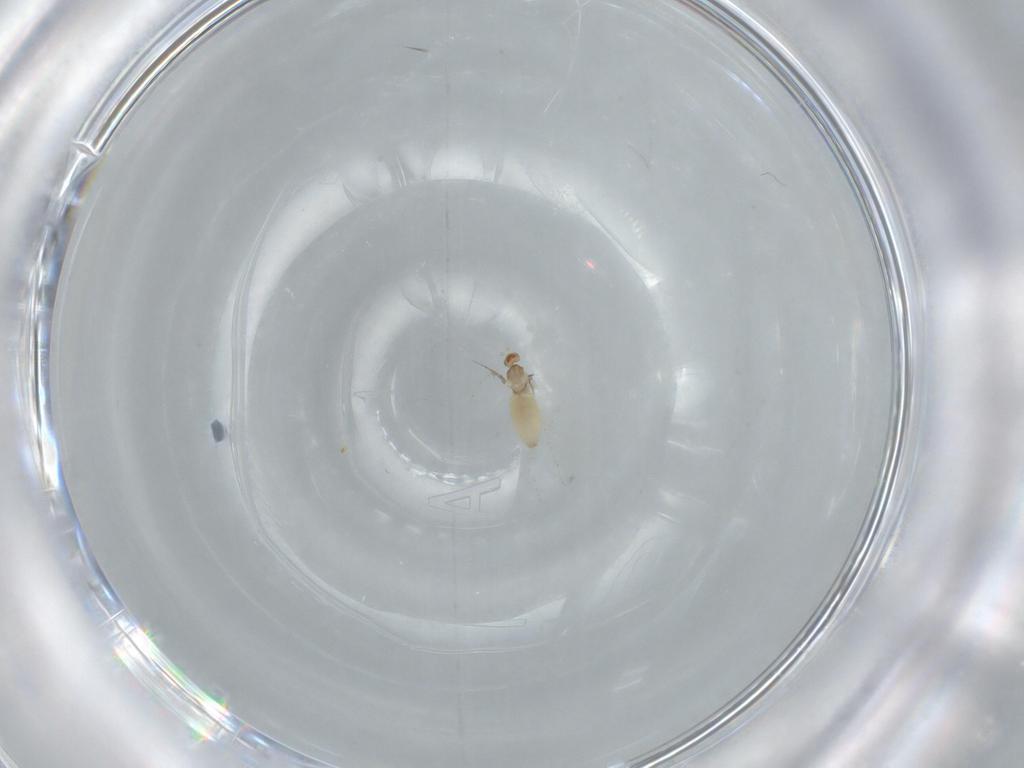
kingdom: Animalia
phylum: Arthropoda
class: Insecta
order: Diptera
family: Cecidomyiidae
